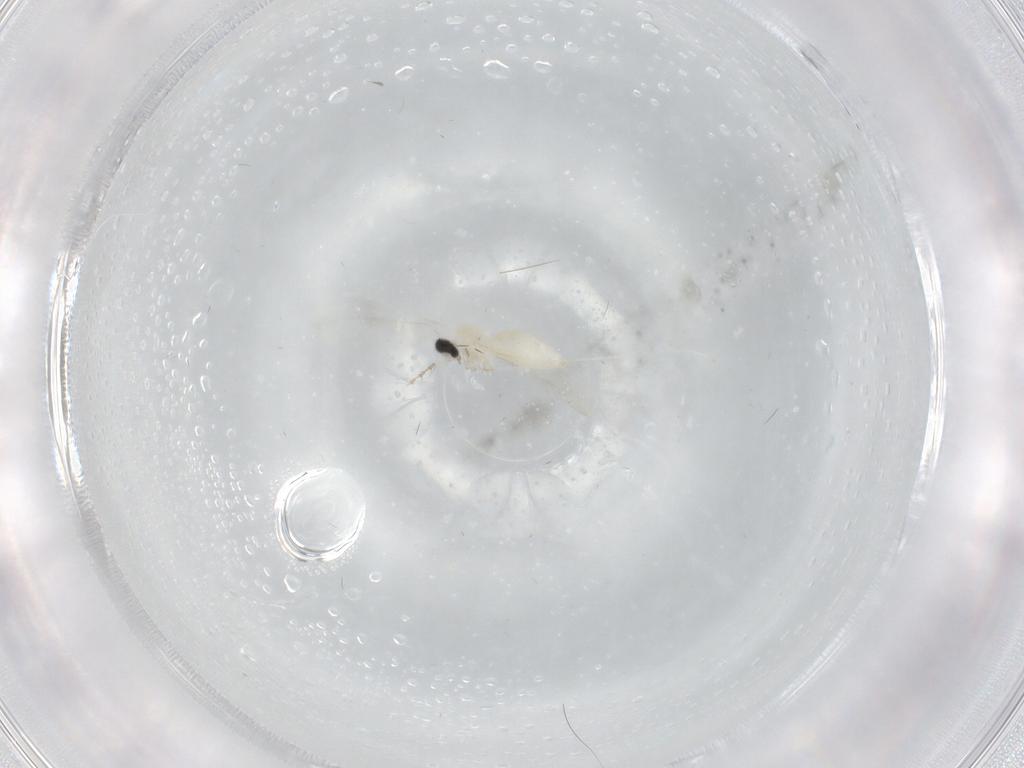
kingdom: Animalia
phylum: Arthropoda
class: Insecta
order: Diptera
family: Cecidomyiidae
